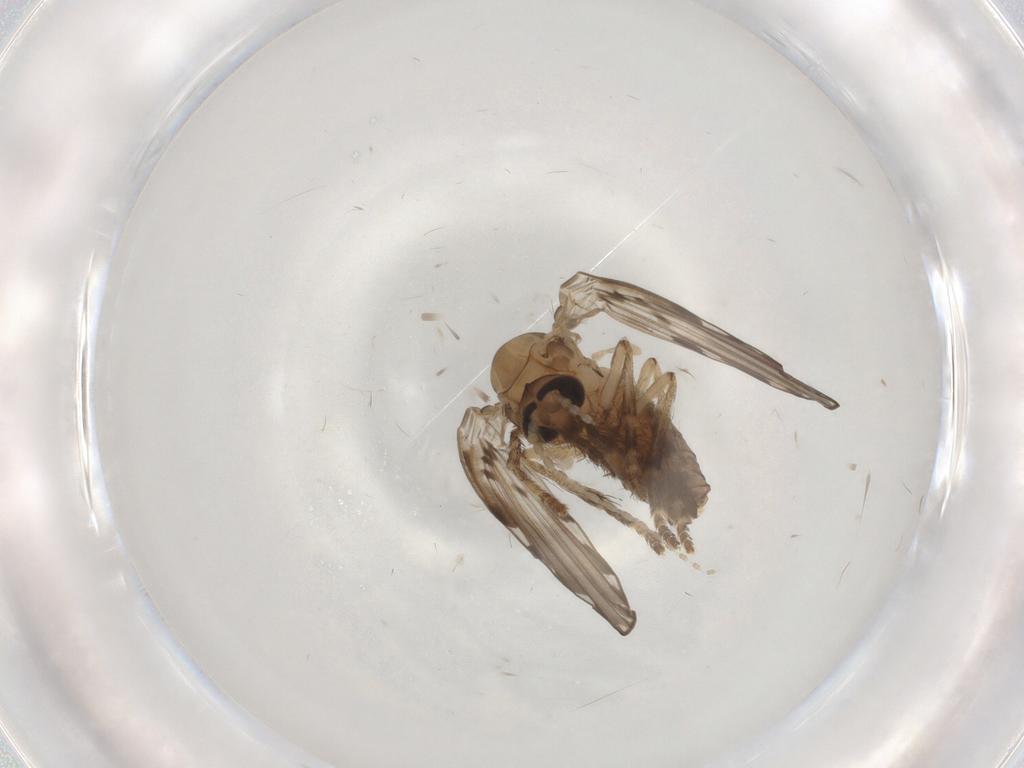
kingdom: Animalia
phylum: Arthropoda
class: Insecta
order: Diptera
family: Psychodidae
